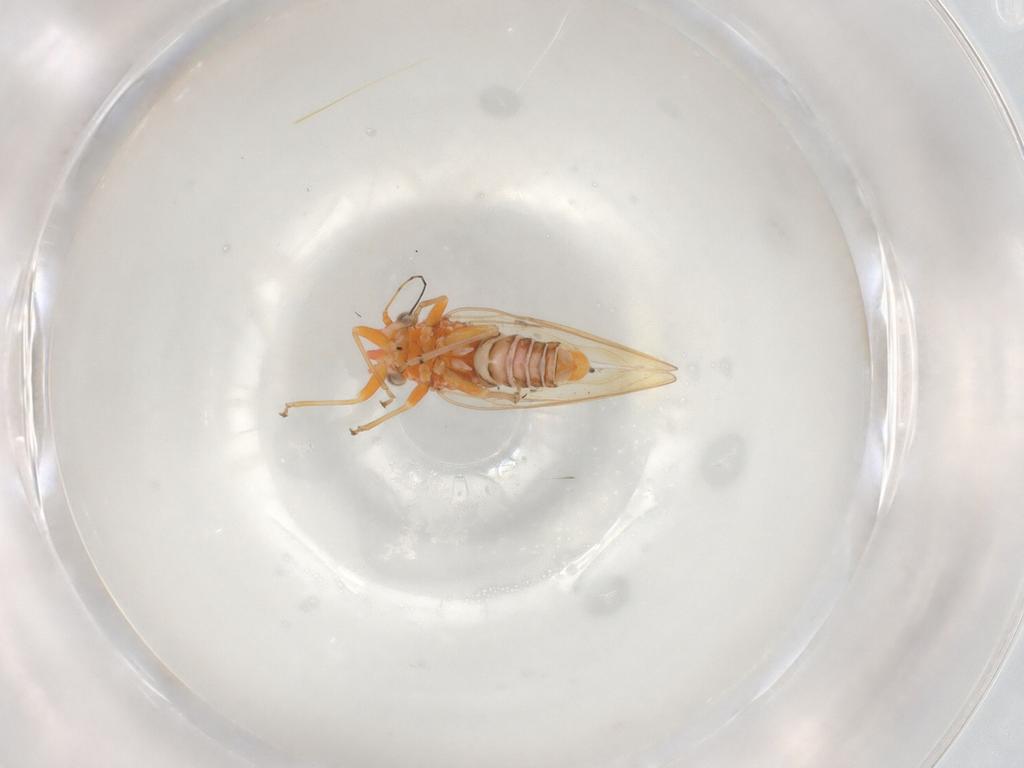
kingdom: Animalia
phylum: Arthropoda
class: Insecta
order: Hemiptera
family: Psyllidae
